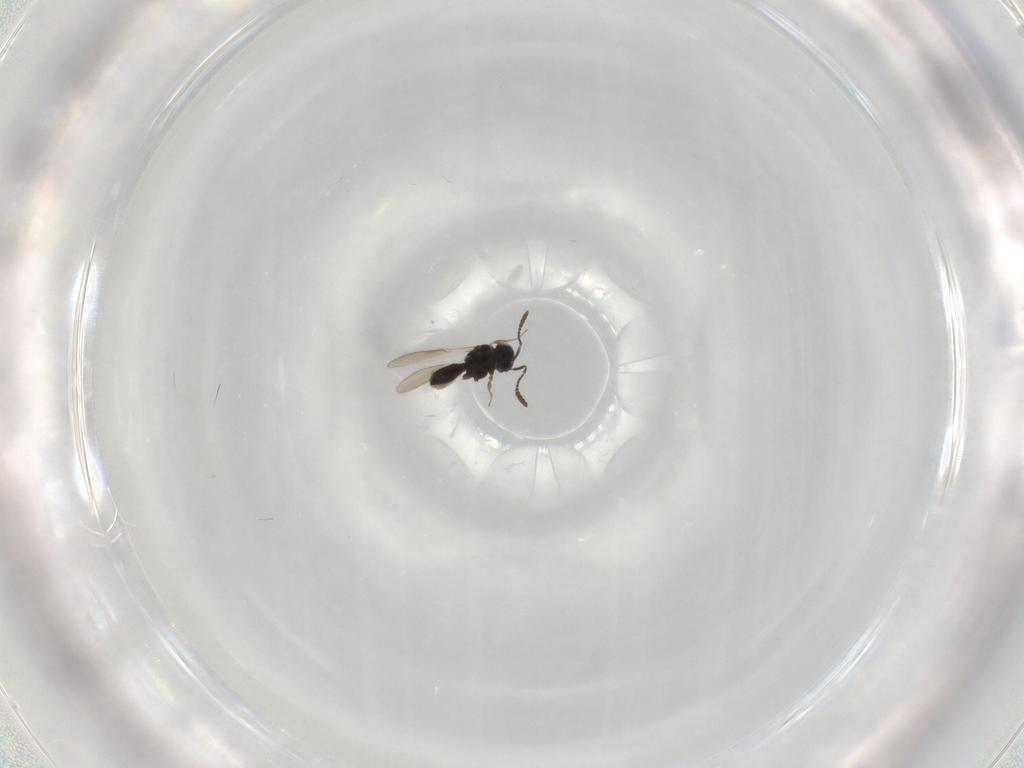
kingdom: Animalia
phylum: Arthropoda
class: Insecta
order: Hymenoptera
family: Scelionidae
